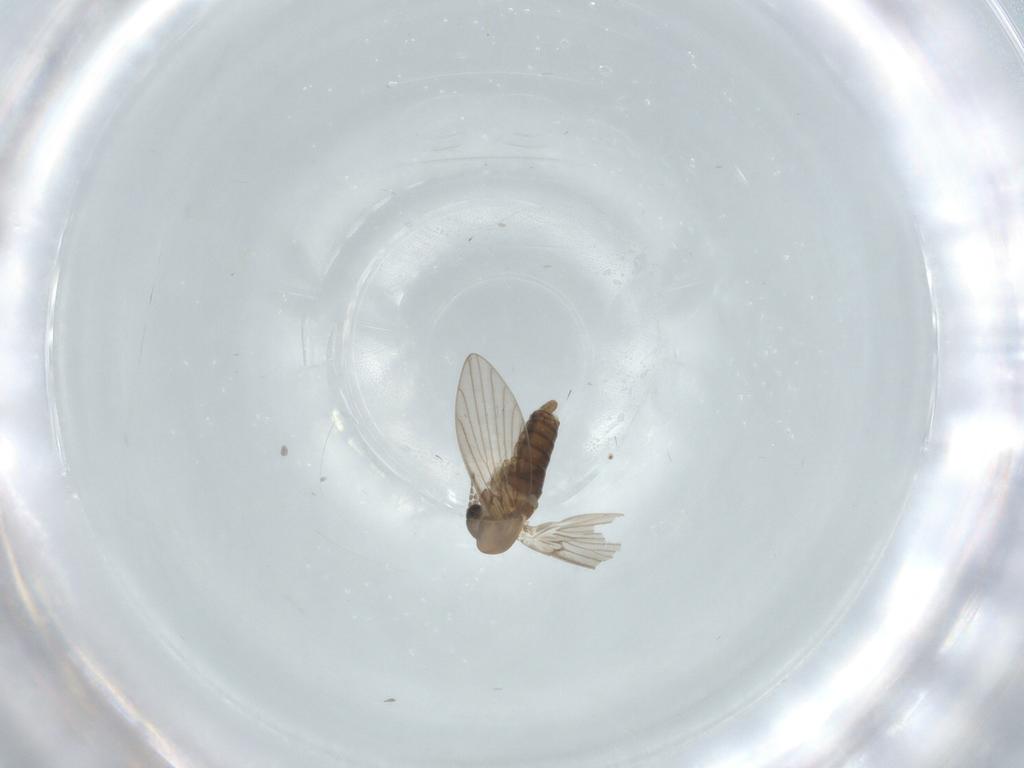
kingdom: Animalia
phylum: Arthropoda
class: Insecta
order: Diptera
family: Psychodidae
